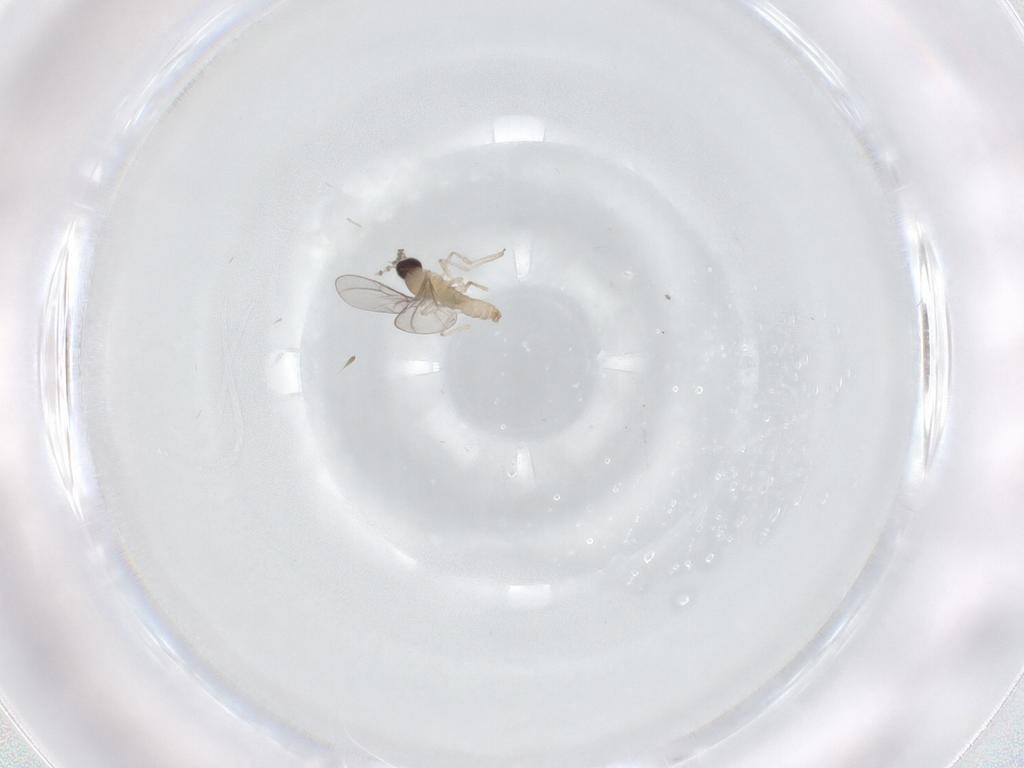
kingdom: Animalia
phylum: Arthropoda
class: Insecta
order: Diptera
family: Cecidomyiidae
